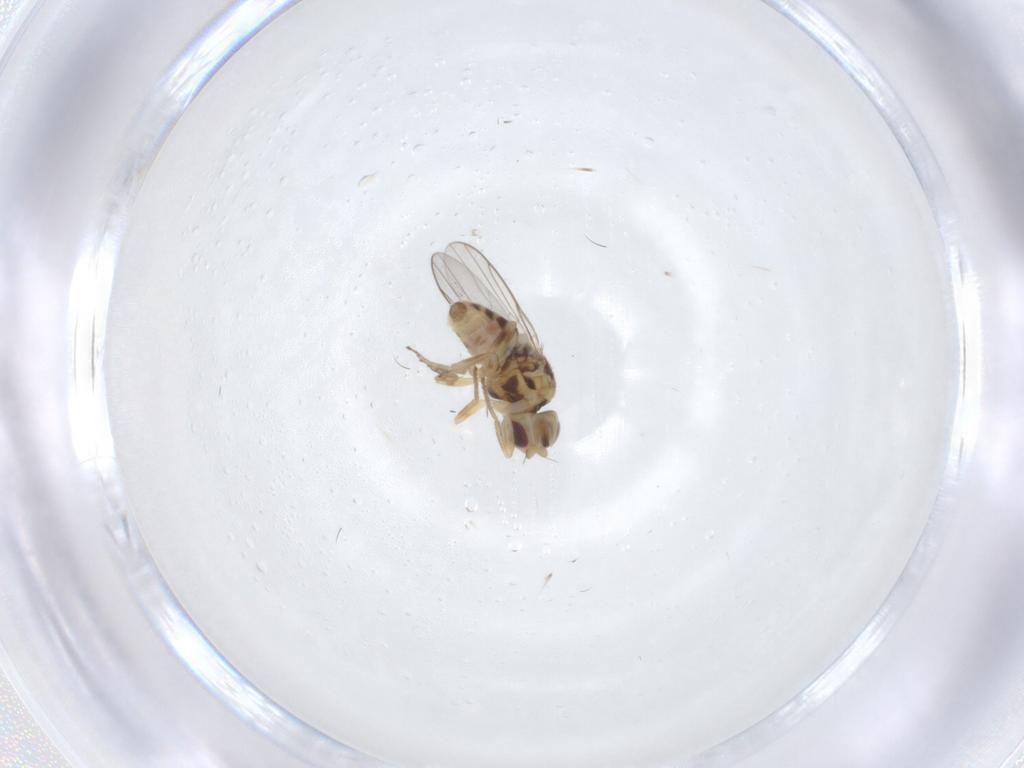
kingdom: Animalia
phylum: Arthropoda
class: Insecta
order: Diptera
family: Chloropidae
